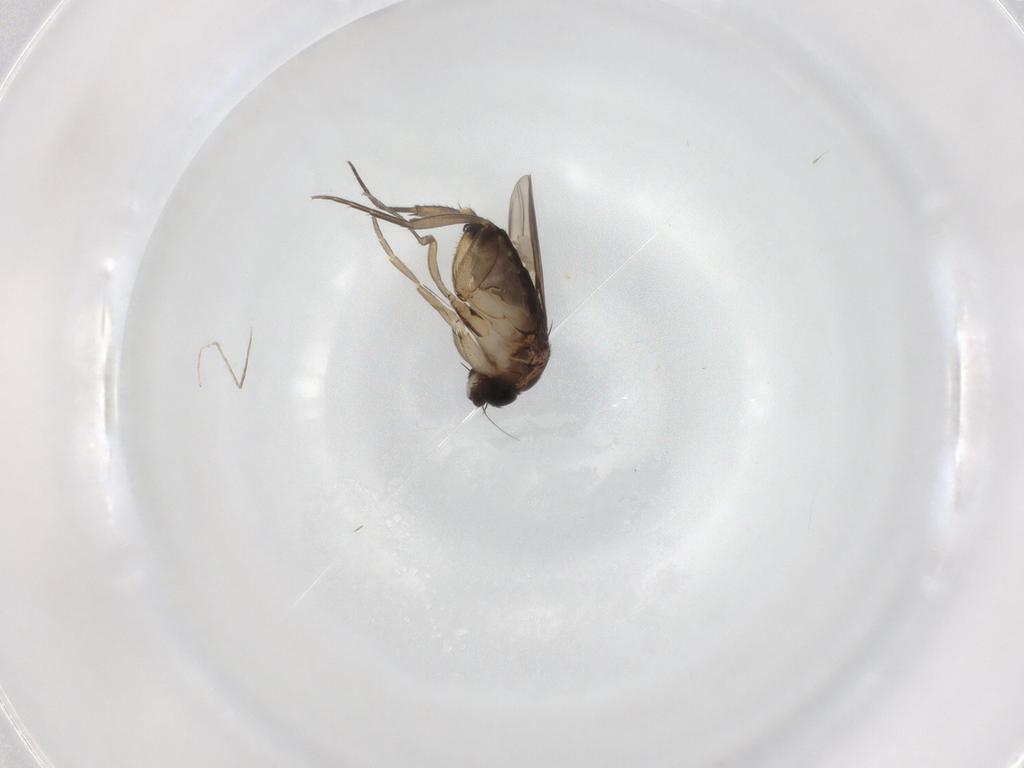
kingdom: Animalia
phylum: Arthropoda
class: Insecta
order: Diptera
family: Phoridae
